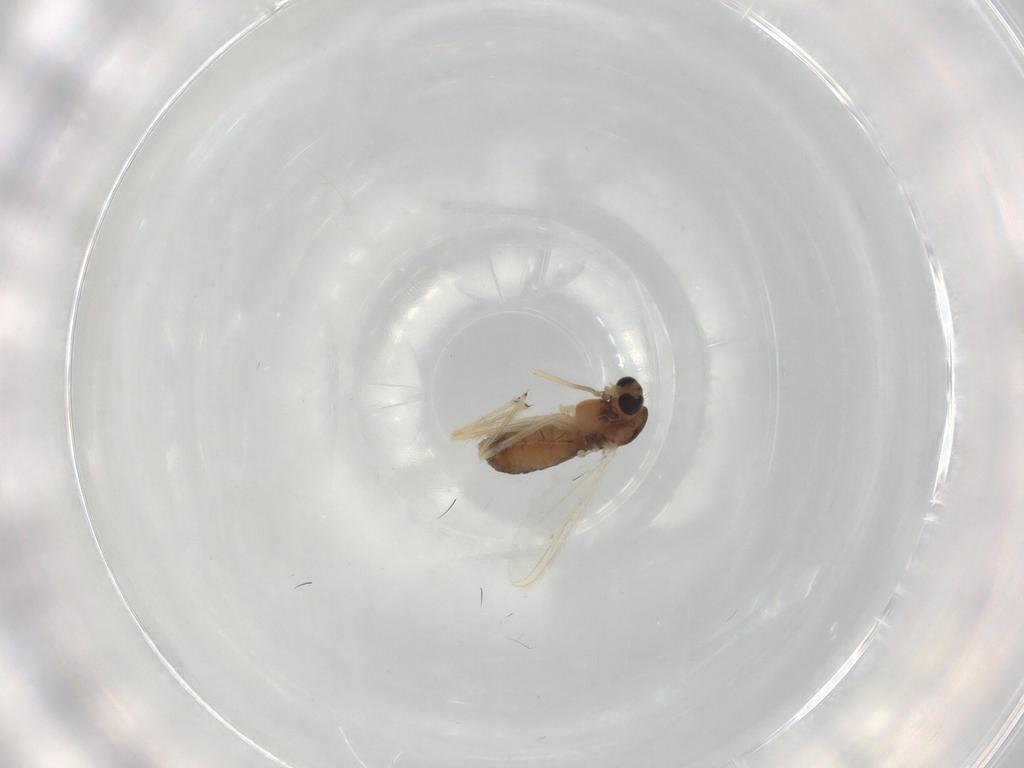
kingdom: Animalia
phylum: Arthropoda
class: Insecta
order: Diptera
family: Chironomidae
